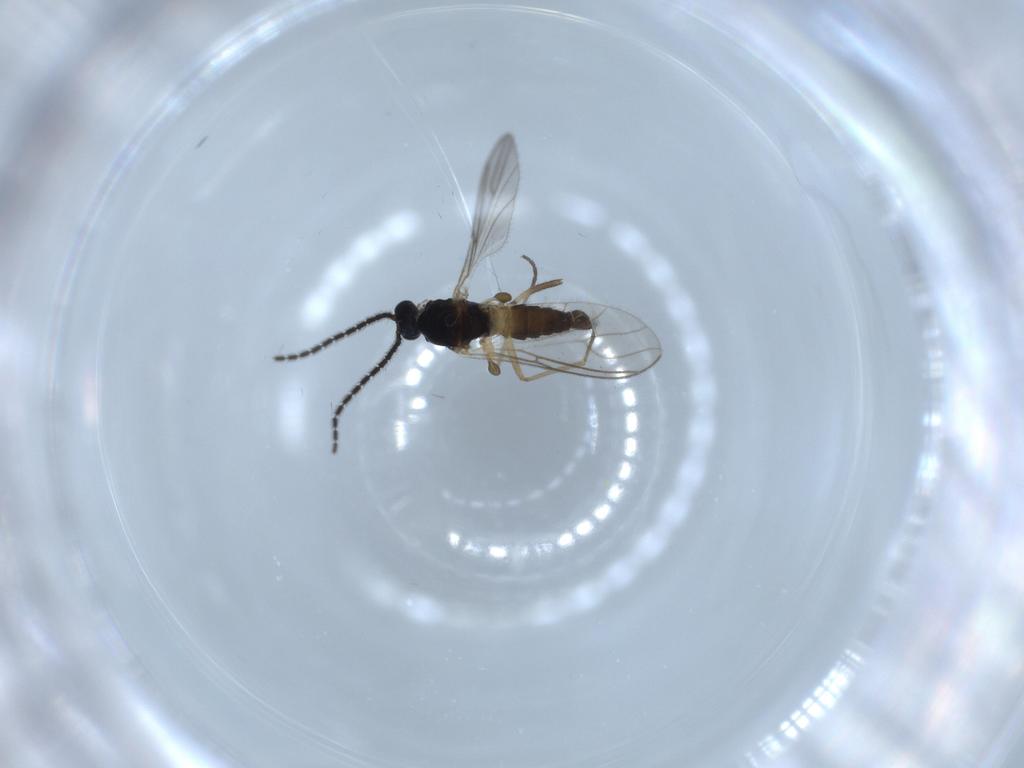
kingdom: Animalia
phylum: Arthropoda
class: Insecta
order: Diptera
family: Sciaridae
